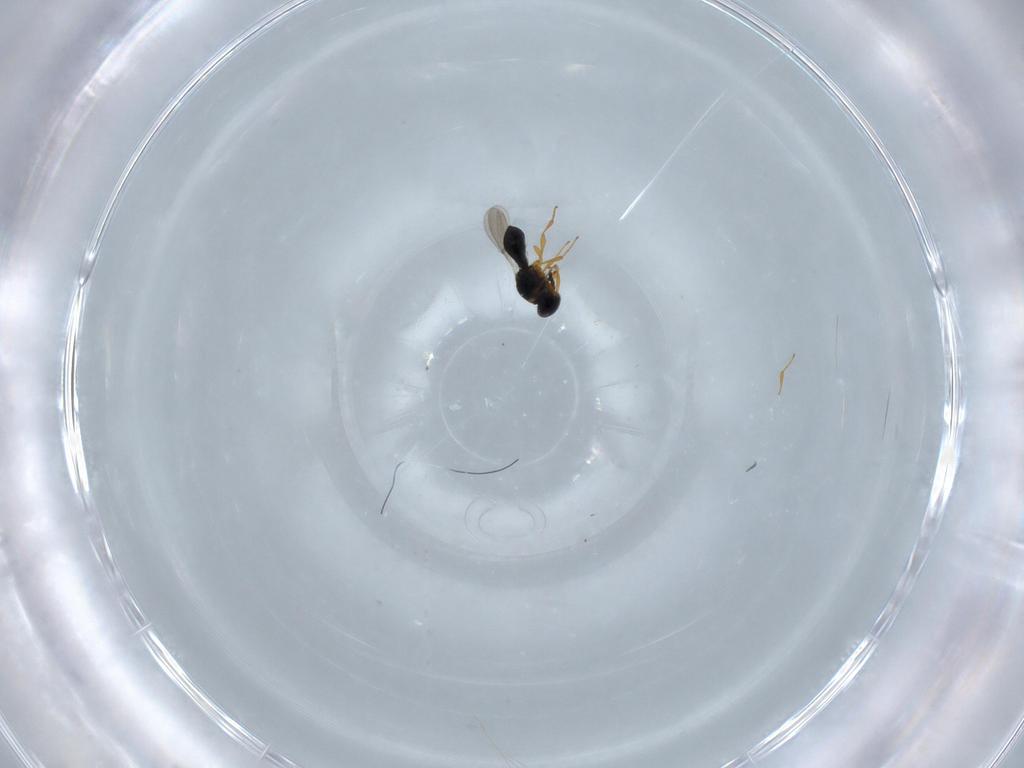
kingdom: Animalia
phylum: Arthropoda
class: Insecta
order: Hymenoptera
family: Platygastridae
